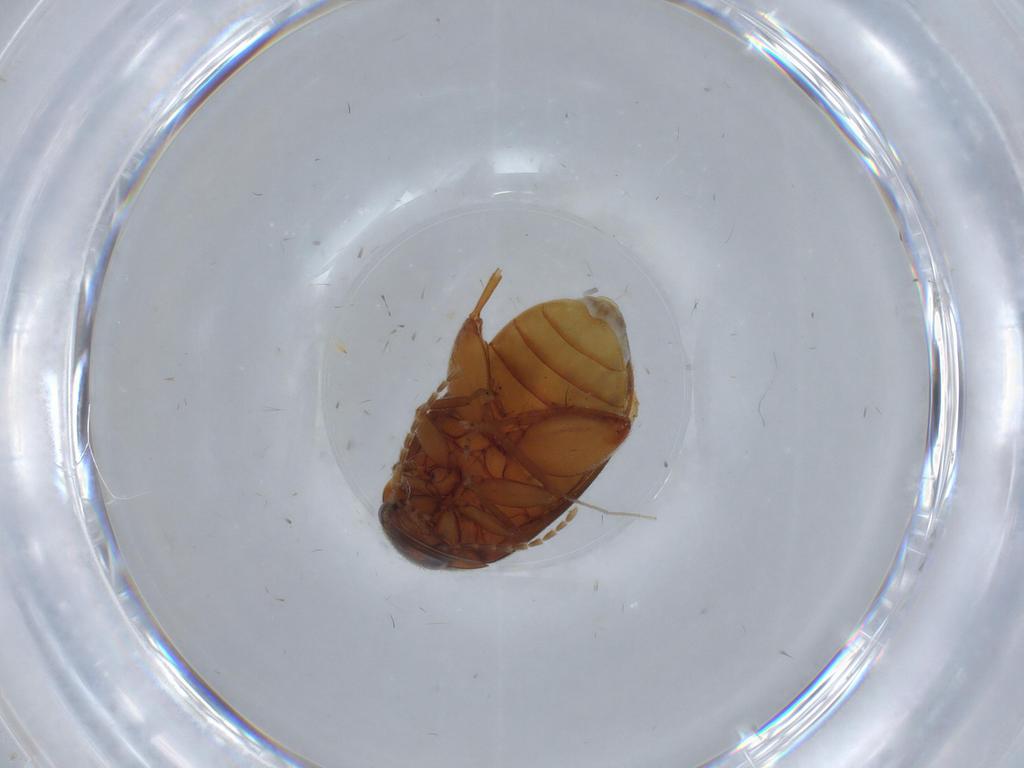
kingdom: Animalia
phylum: Arthropoda
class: Insecta
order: Coleoptera
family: Scirtidae
